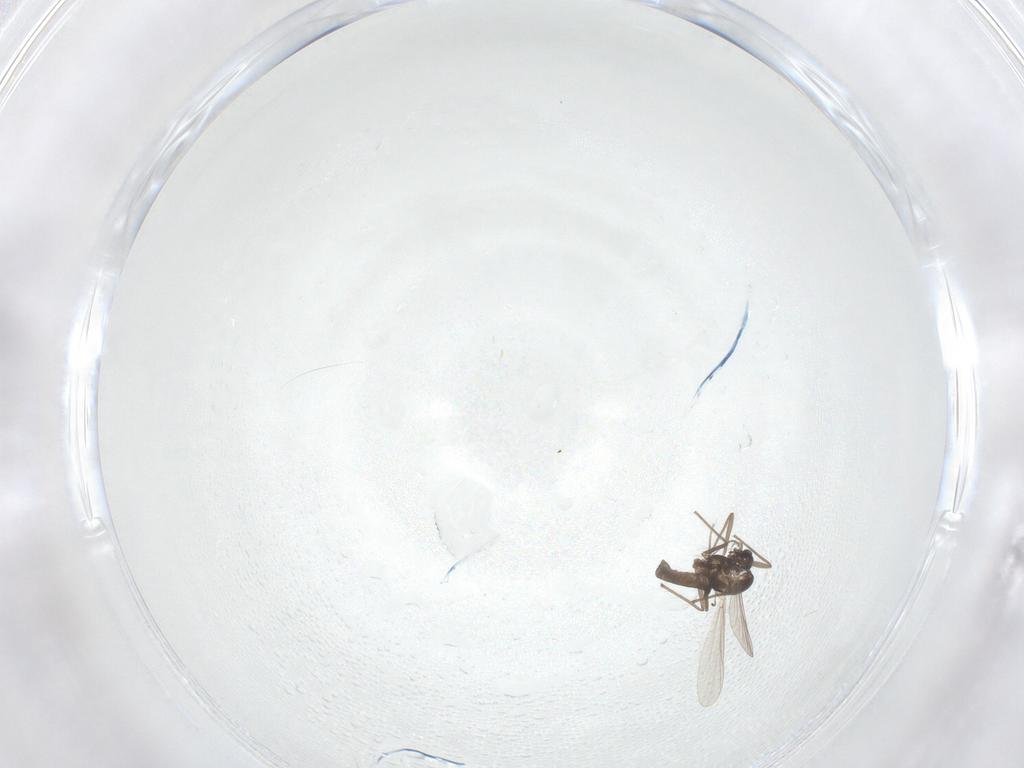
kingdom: Animalia
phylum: Arthropoda
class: Insecta
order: Diptera
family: Chironomidae
